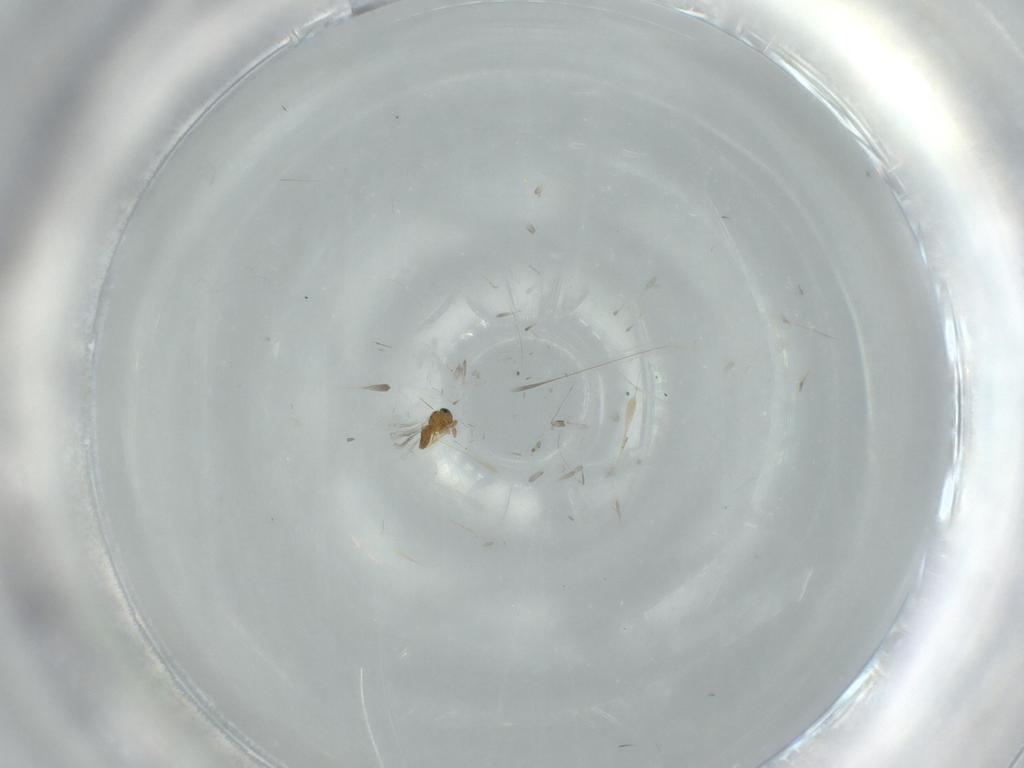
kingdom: Animalia
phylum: Arthropoda
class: Insecta
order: Hymenoptera
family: Platygastridae
